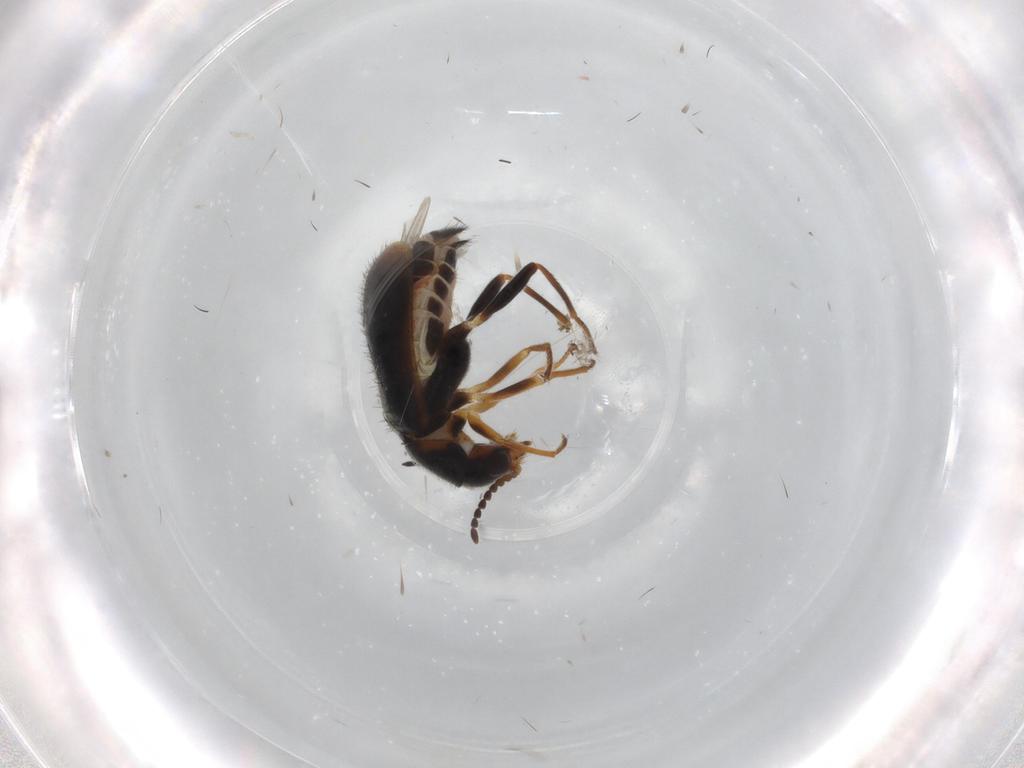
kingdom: Animalia
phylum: Arthropoda
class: Insecta
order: Coleoptera
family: Melyridae
